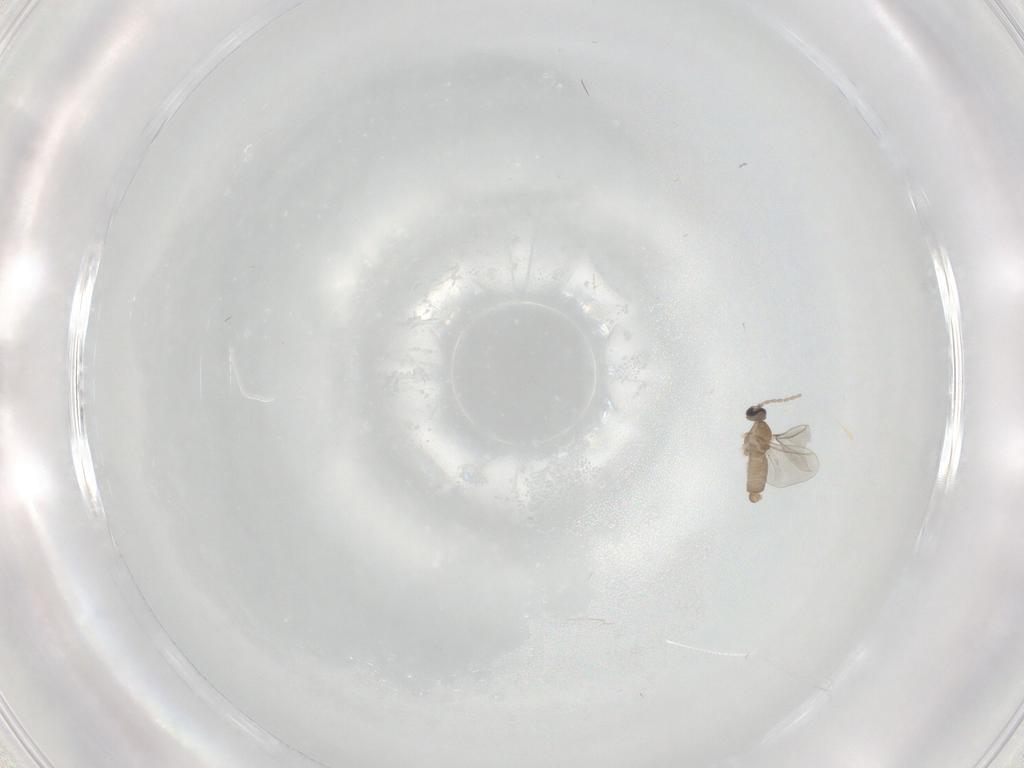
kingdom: Animalia
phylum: Arthropoda
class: Insecta
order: Diptera
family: Cecidomyiidae
